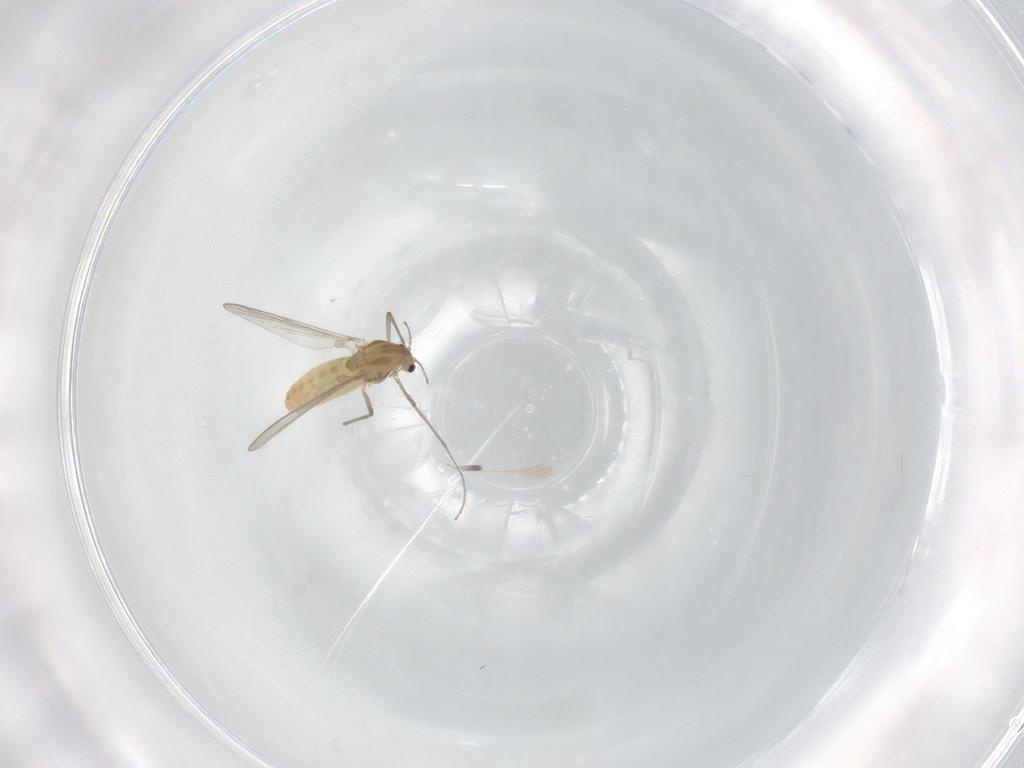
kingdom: Animalia
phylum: Arthropoda
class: Insecta
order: Diptera
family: Chironomidae
